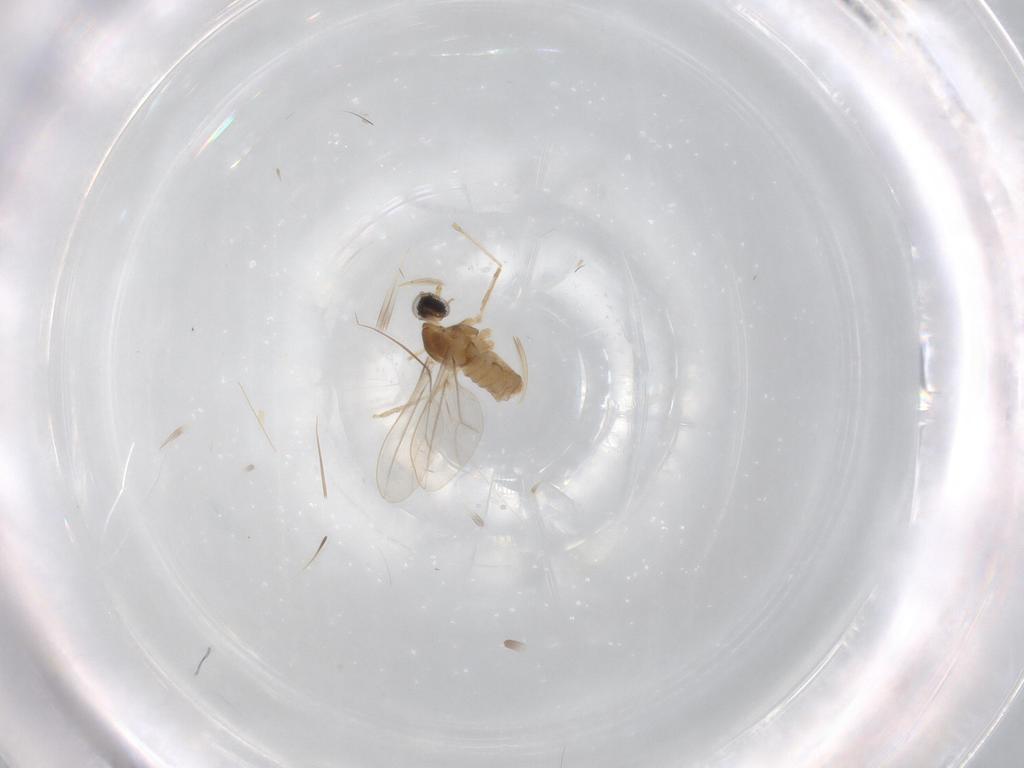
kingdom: Animalia
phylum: Arthropoda
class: Insecta
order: Diptera
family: Cecidomyiidae
